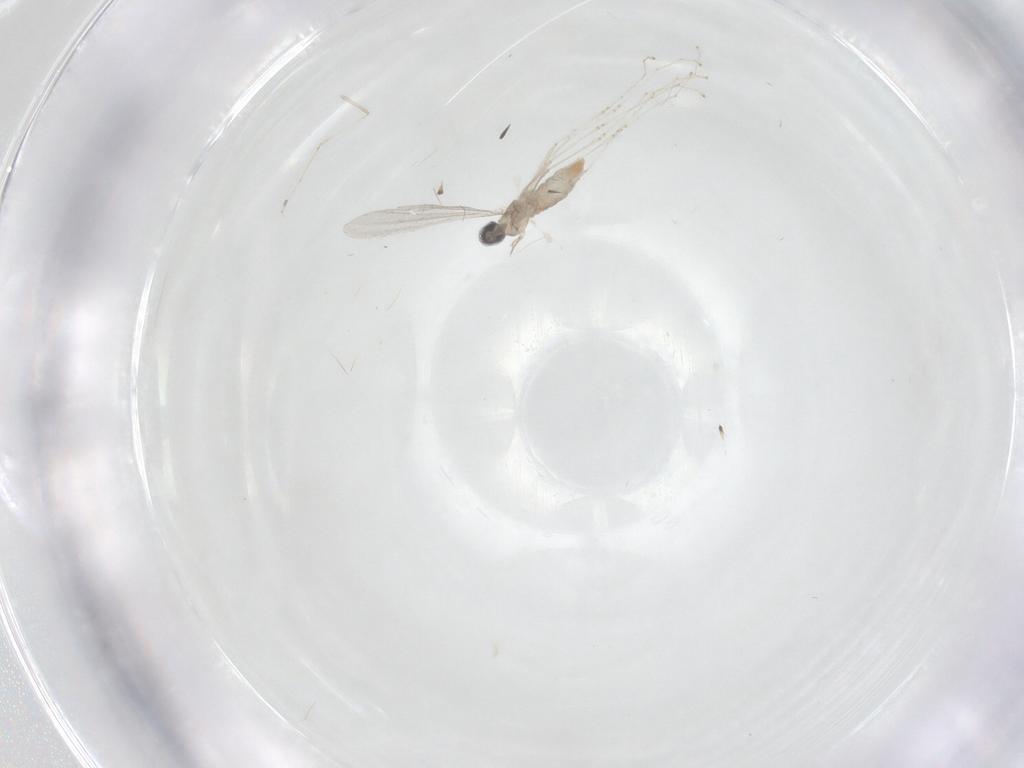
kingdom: Animalia
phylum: Arthropoda
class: Insecta
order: Diptera
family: Cecidomyiidae
